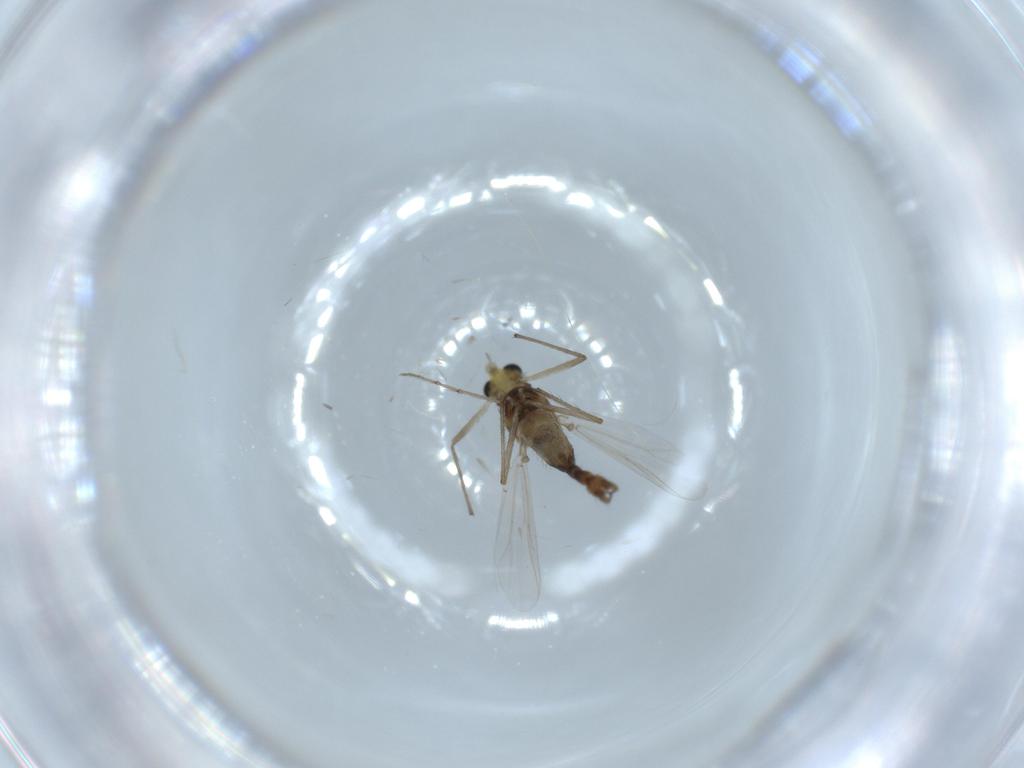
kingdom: Animalia
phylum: Arthropoda
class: Insecta
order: Diptera
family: Chironomidae
